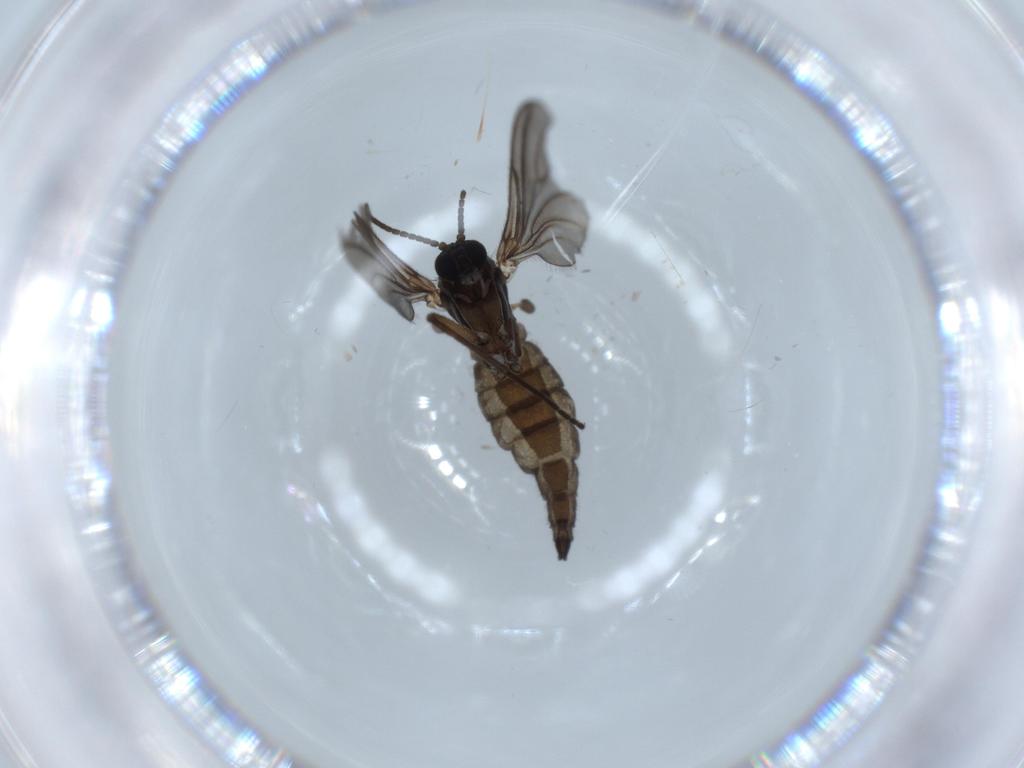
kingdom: Animalia
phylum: Arthropoda
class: Insecta
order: Diptera
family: Sciaridae
